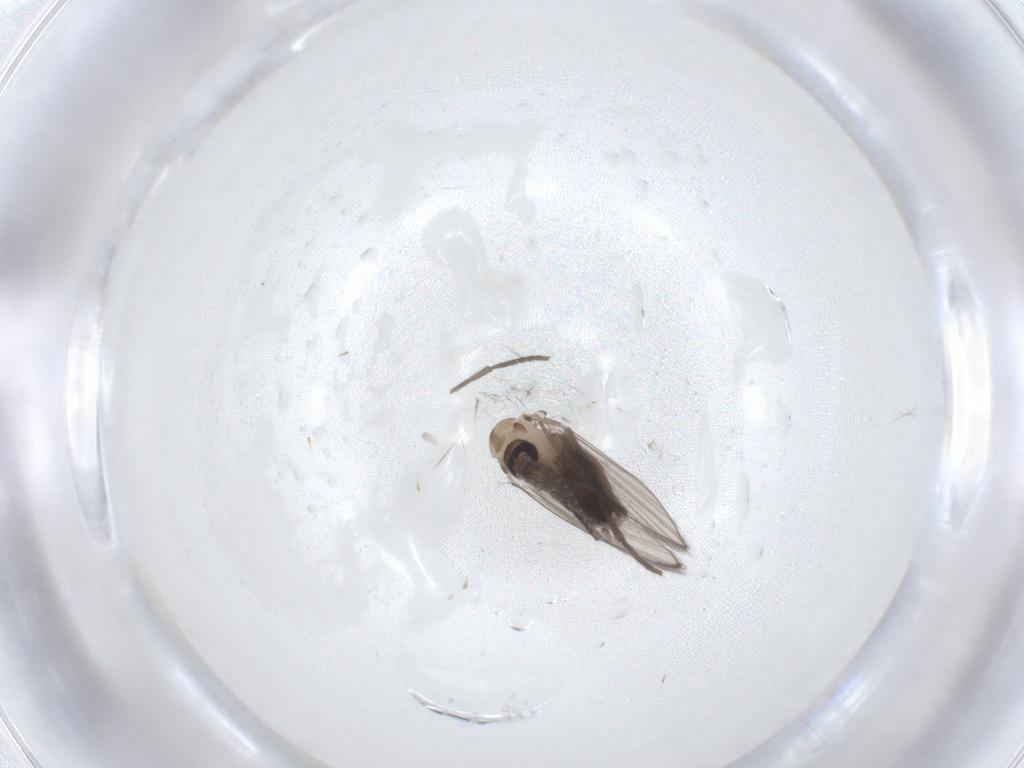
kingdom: Animalia
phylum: Arthropoda
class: Insecta
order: Diptera
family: Psychodidae
